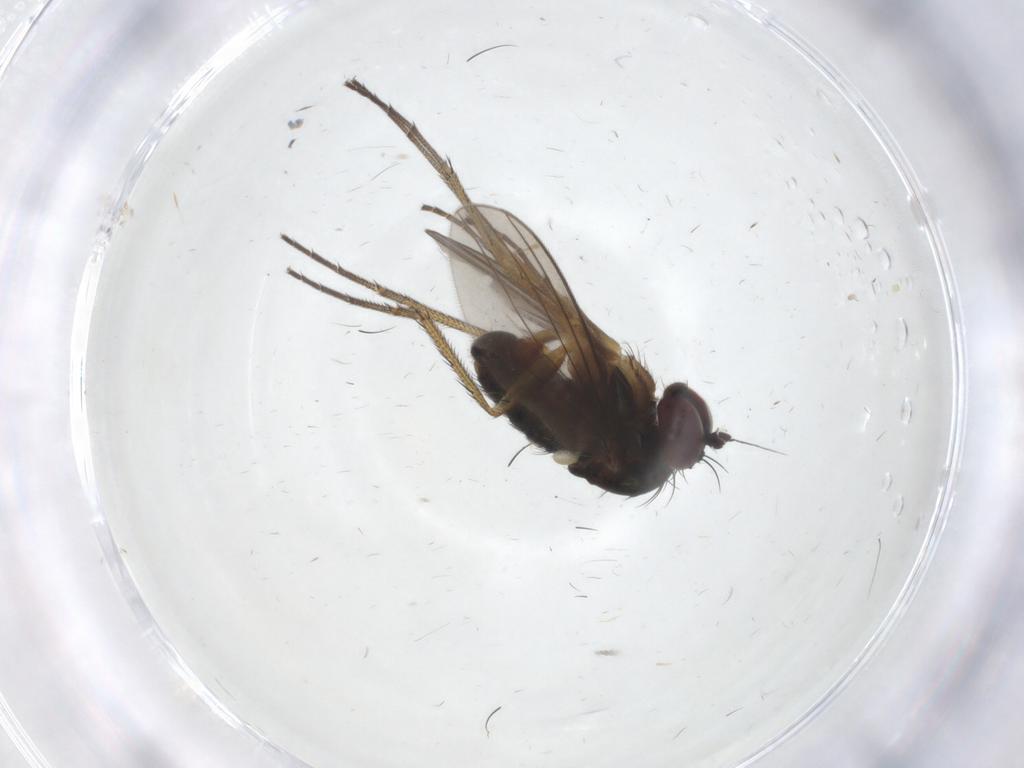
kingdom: Animalia
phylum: Arthropoda
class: Insecta
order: Diptera
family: Dolichopodidae
